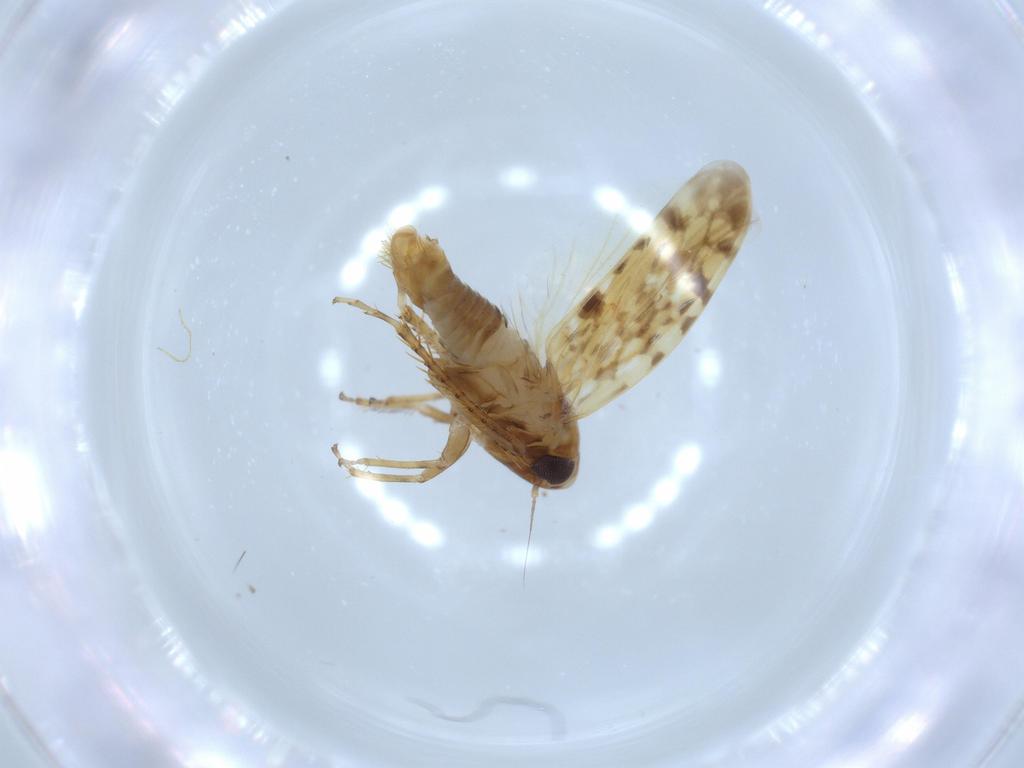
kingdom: Animalia
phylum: Arthropoda
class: Insecta
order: Hemiptera
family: Cicadellidae
